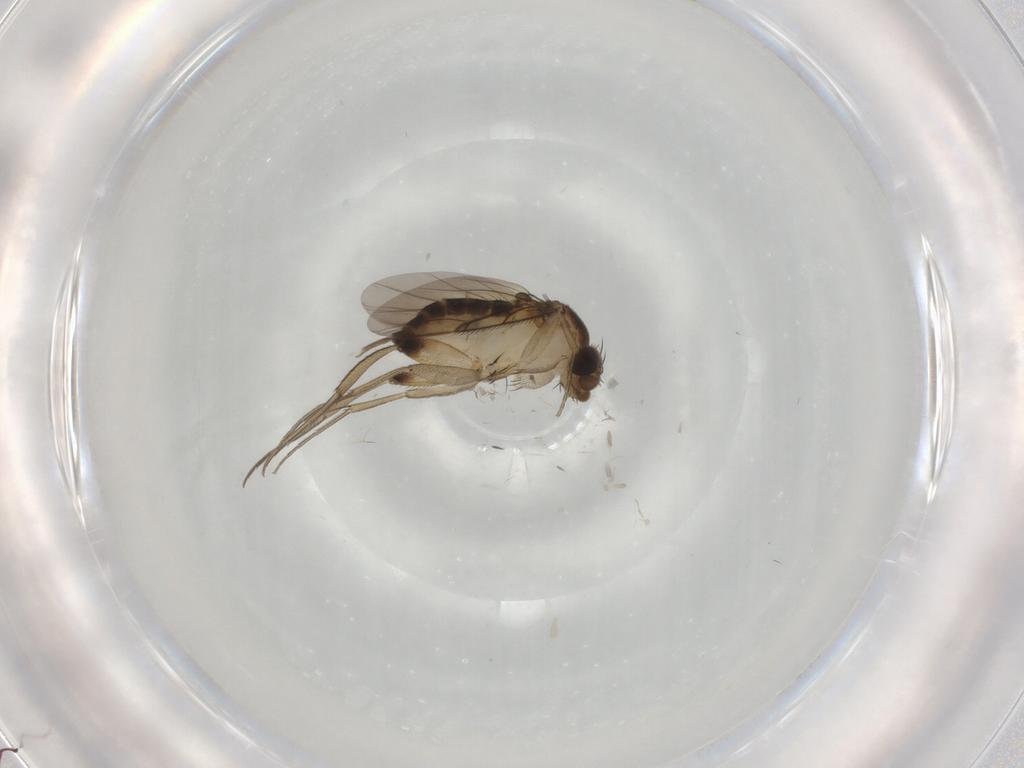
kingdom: Animalia
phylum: Arthropoda
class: Insecta
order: Diptera
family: Phoridae
